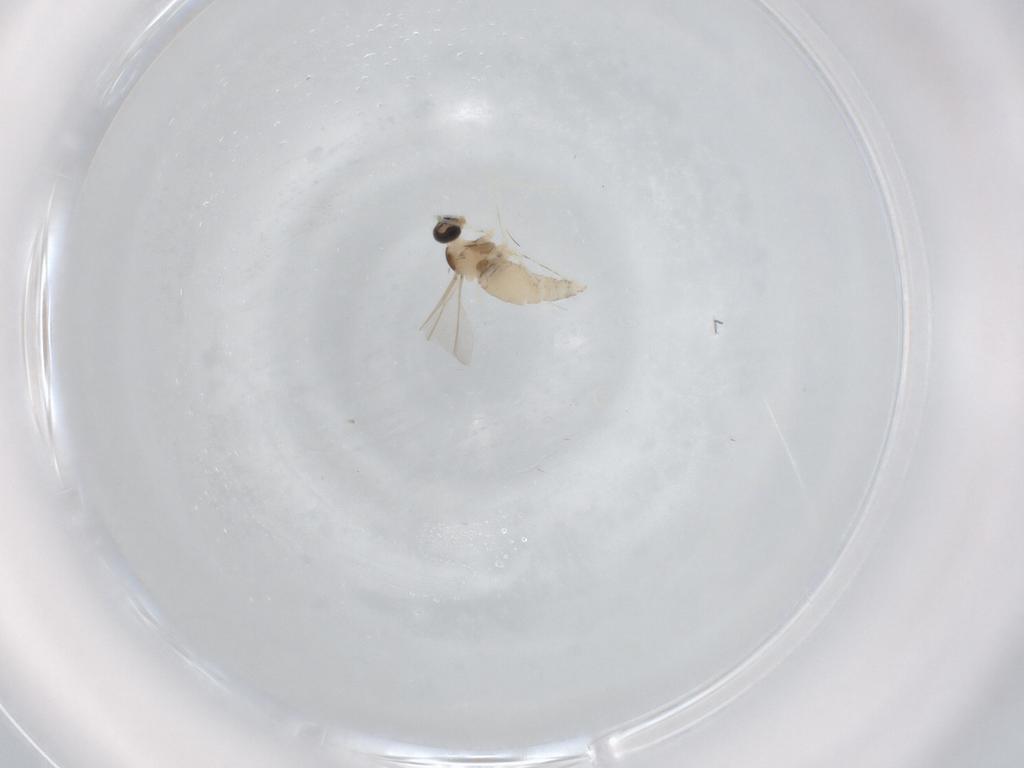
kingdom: Animalia
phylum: Arthropoda
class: Insecta
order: Diptera
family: Cecidomyiidae
